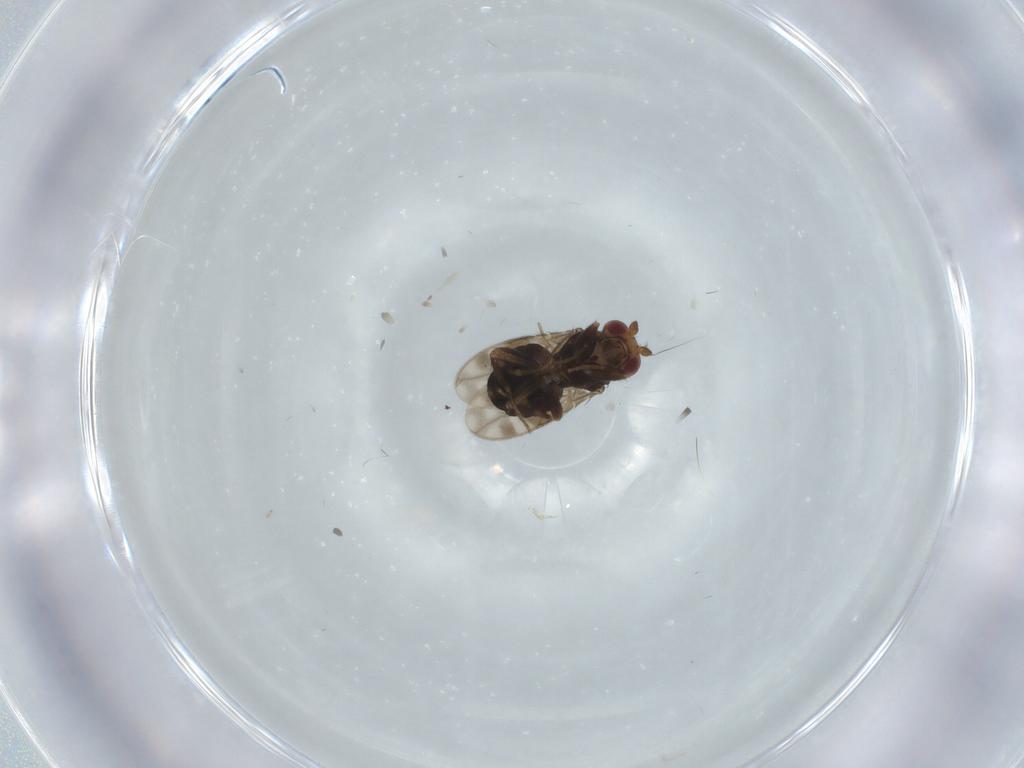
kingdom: Animalia
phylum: Arthropoda
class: Insecta
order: Diptera
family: Sphaeroceridae
